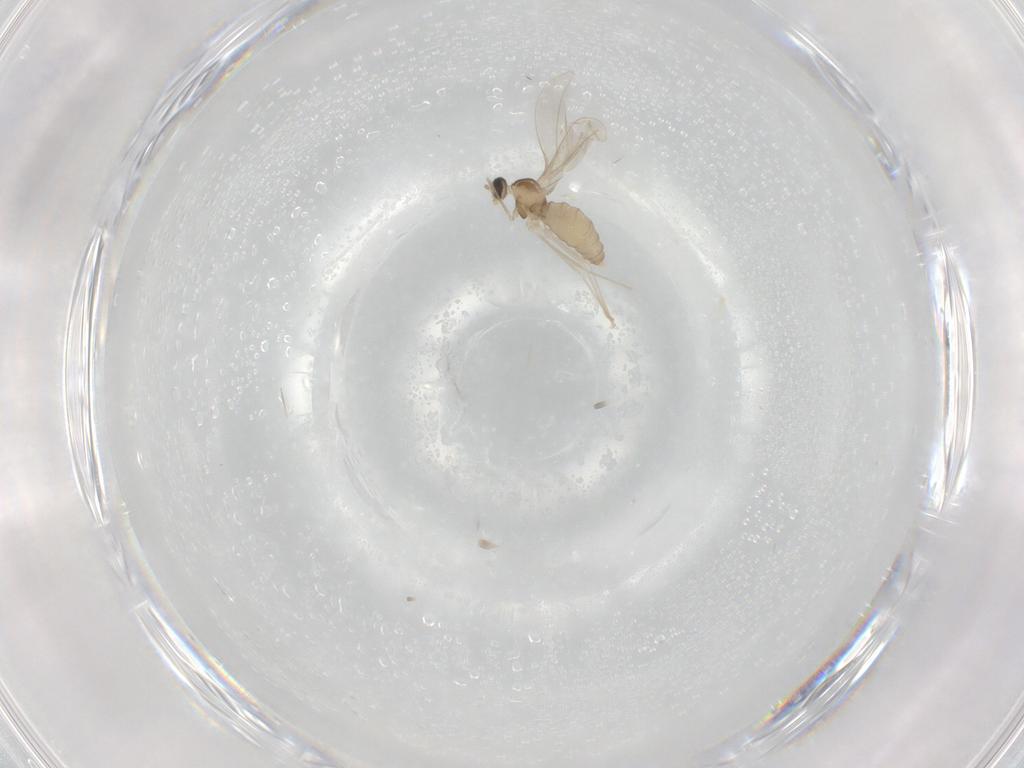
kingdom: Animalia
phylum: Arthropoda
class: Insecta
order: Diptera
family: Cecidomyiidae
